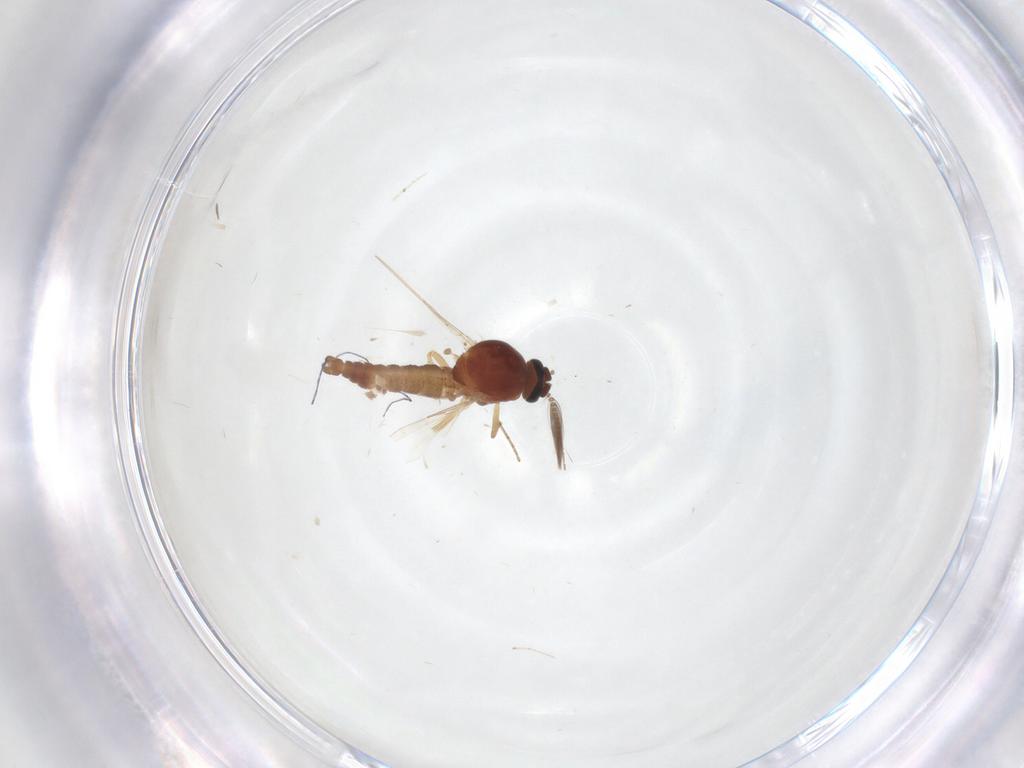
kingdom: Animalia
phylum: Arthropoda
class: Insecta
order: Diptera
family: Ceratopogonidae
